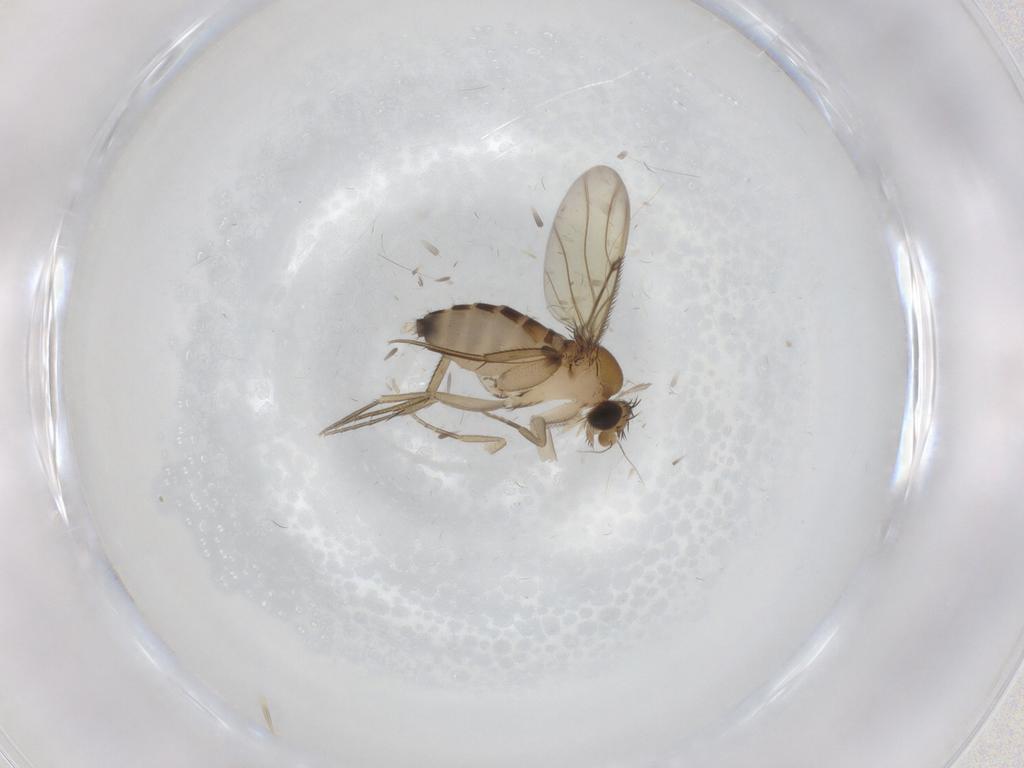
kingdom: Animalia
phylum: Arthropoda
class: Insecta
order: Diptera
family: Phoridae
